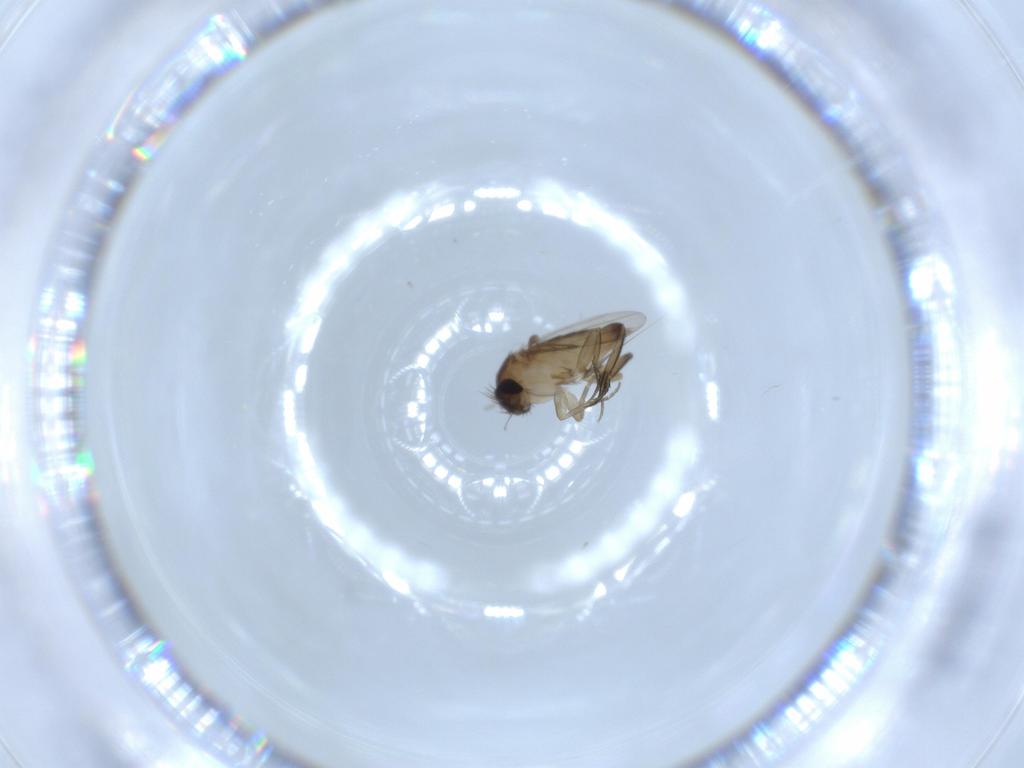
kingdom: Animalia
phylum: Arthropoda
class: Insecta
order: Diptera
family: Phoridae
